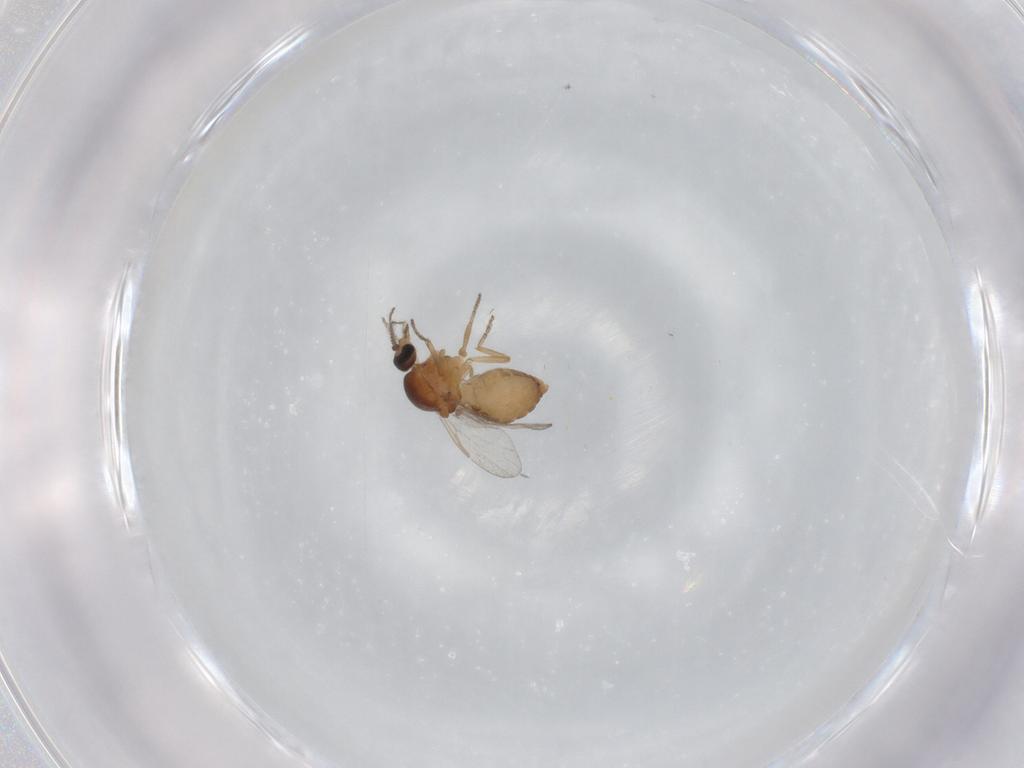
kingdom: Animalia
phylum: Arthropoda
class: Insecta
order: Diptera
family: Ceratopogonidae
